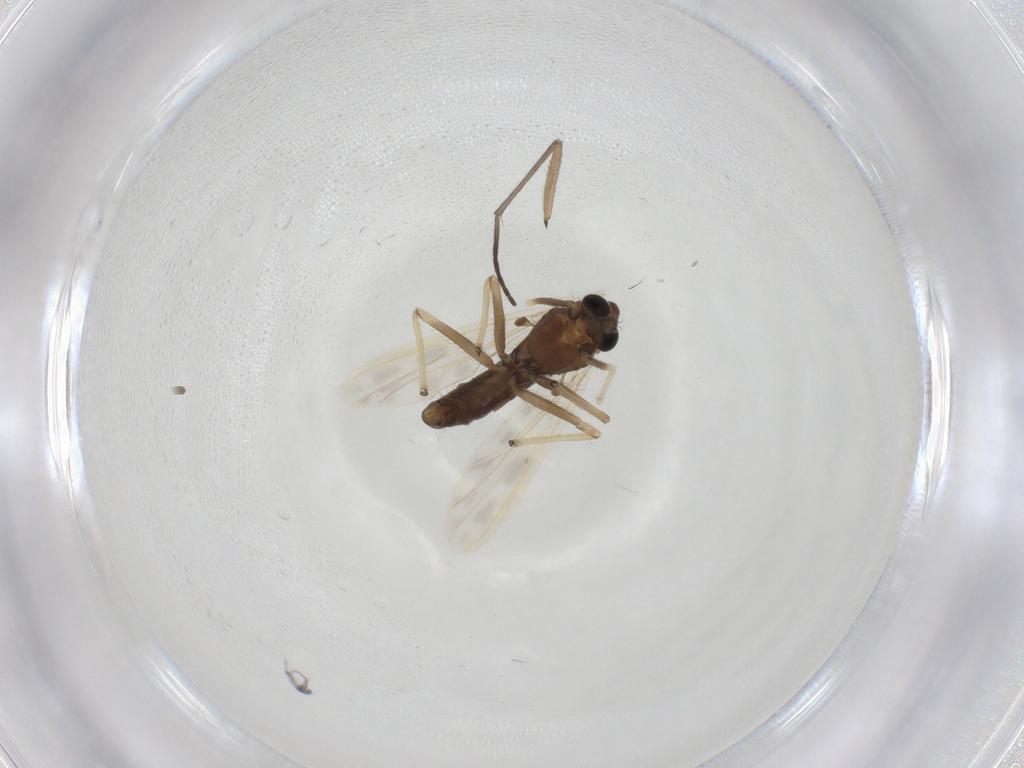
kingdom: Animalia
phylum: Arthropoda
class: Insecta
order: Diptera
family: Chironomidae
